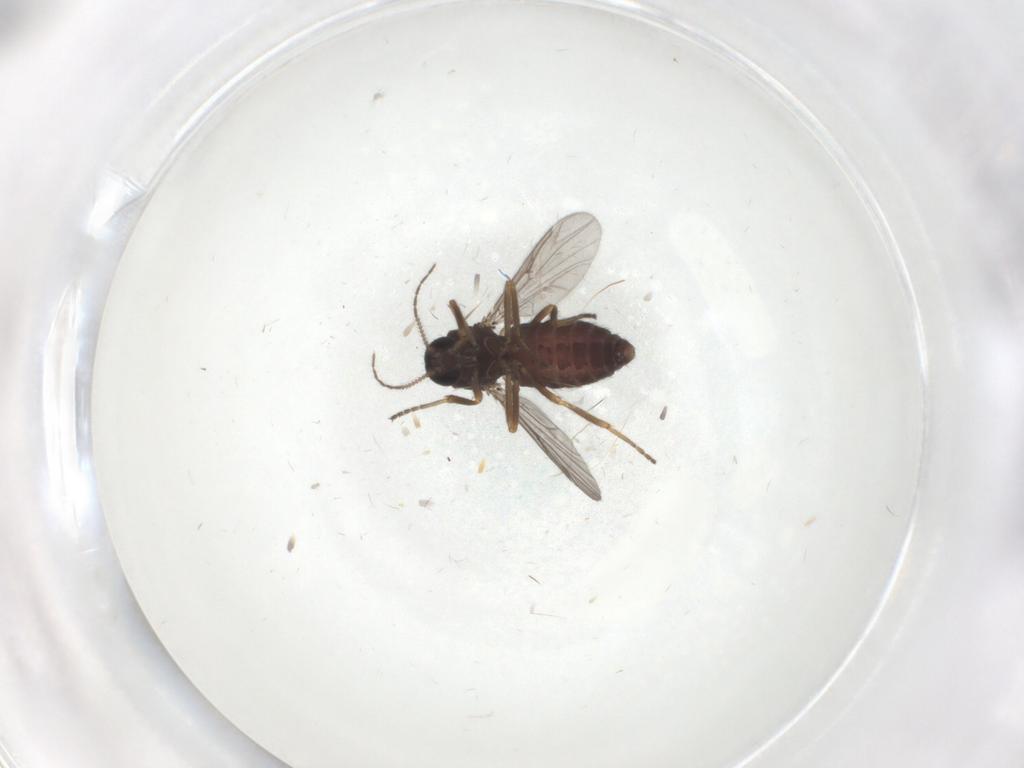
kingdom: Animalia
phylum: Arthropoda
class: Insecta
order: Diptera
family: Ceratopogonidae
